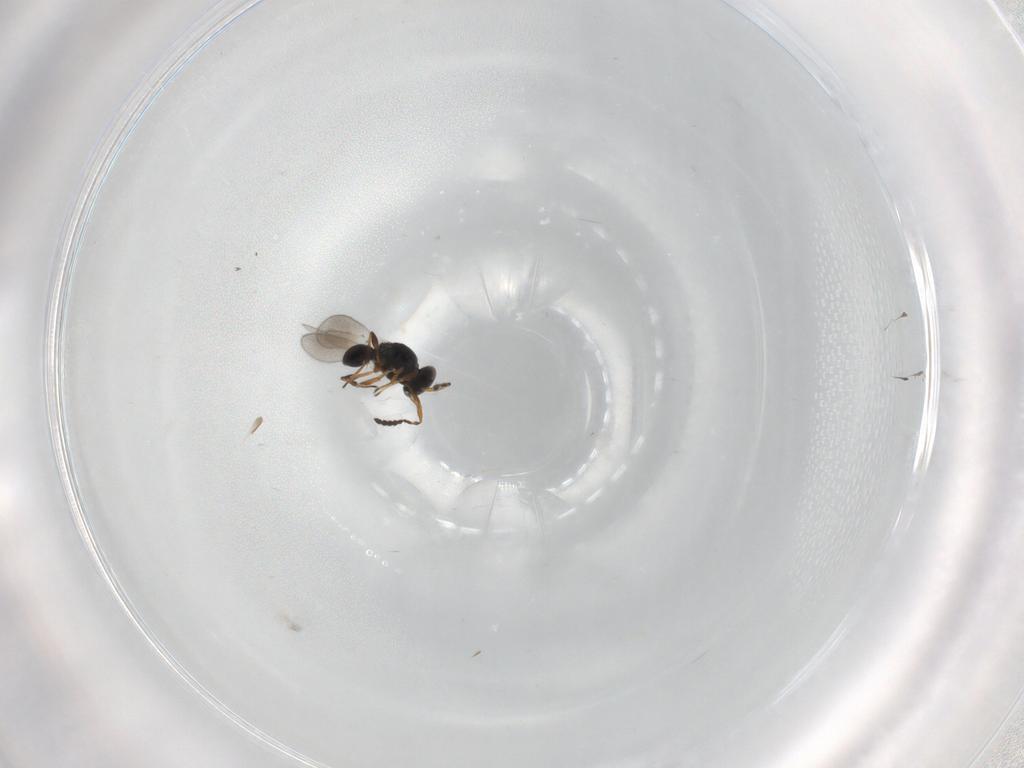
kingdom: Animalia
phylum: Arthropoda
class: Insecta
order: Hymenoptera
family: Platygastridae
